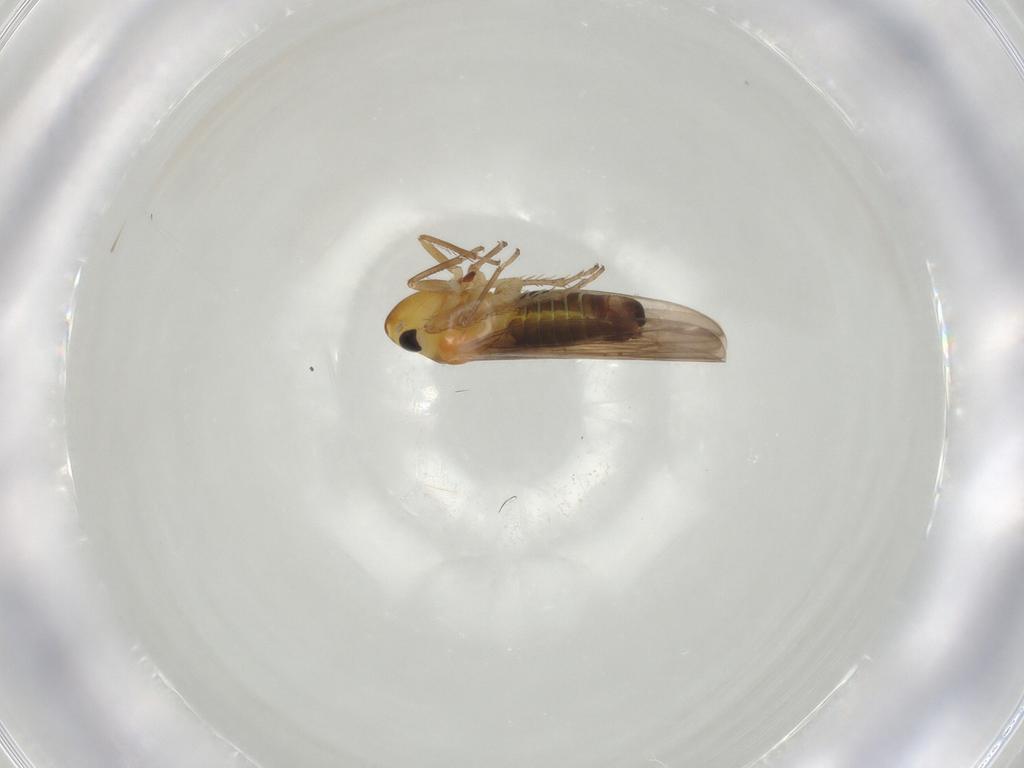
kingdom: Animalia
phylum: Arthropoda
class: Insecta
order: Hemiptera
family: Cicadellidae
